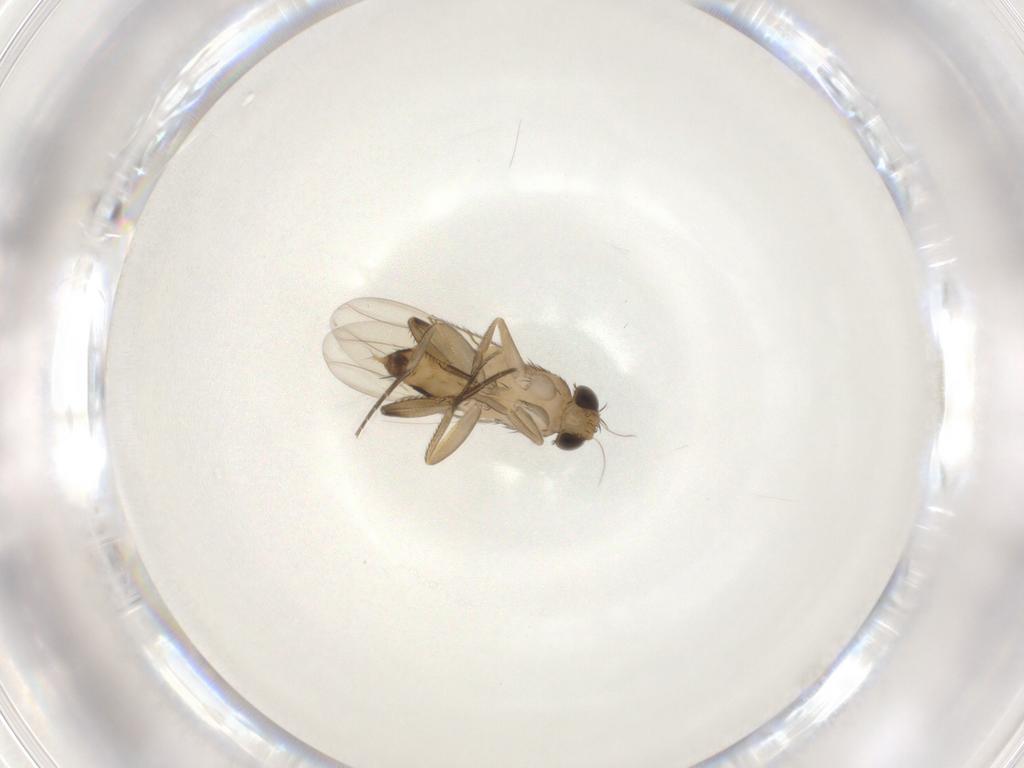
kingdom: Animalia
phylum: Arthropoda
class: Insecta
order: Diptera
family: Phoridae
